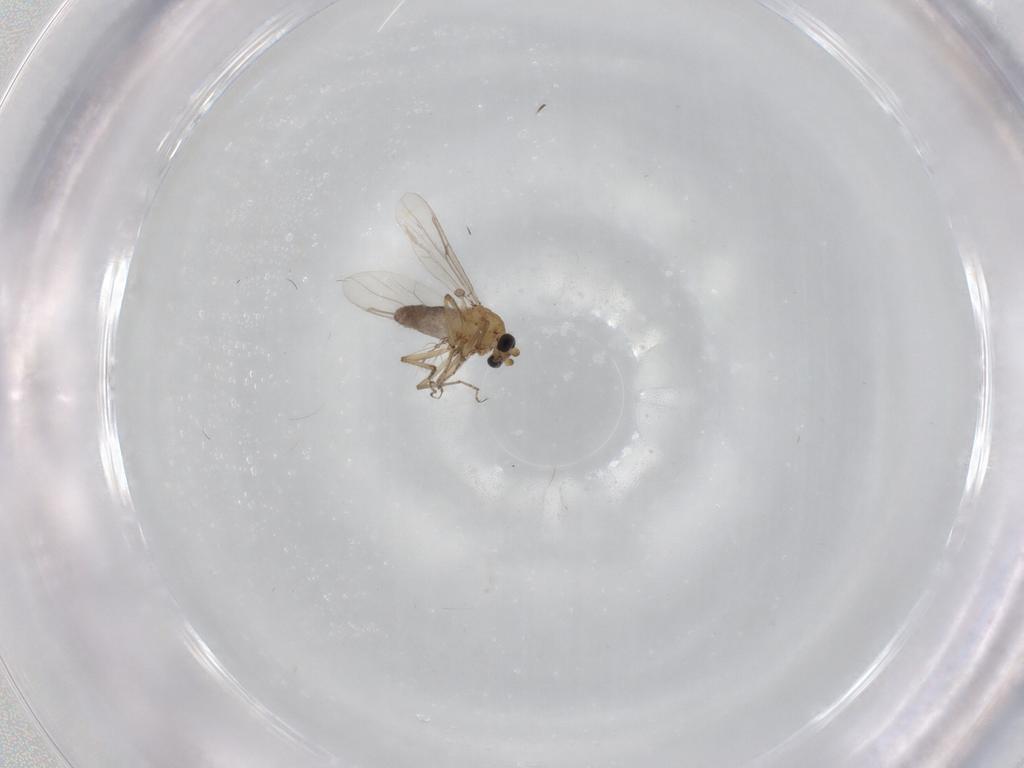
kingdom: Animalia
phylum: Arthropoda
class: Insecta
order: Diptera
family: Ceratopogonidae
